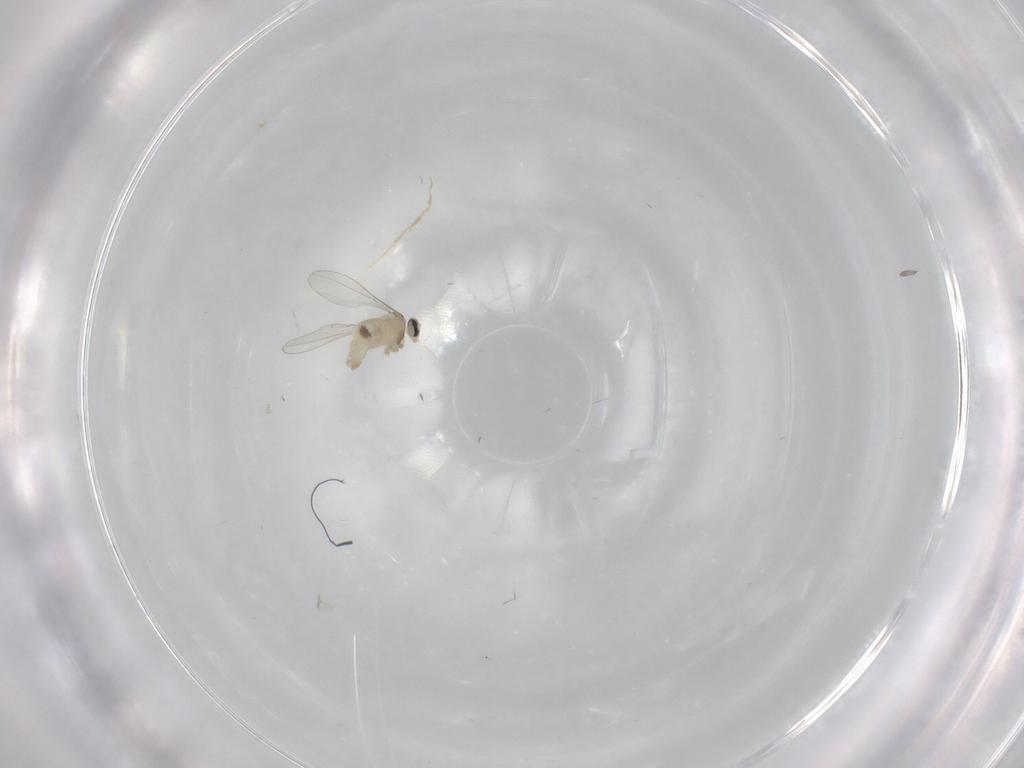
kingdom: Animalia
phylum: Arthropoda
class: Insecta
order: Diptera
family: Cecidomyiidae
